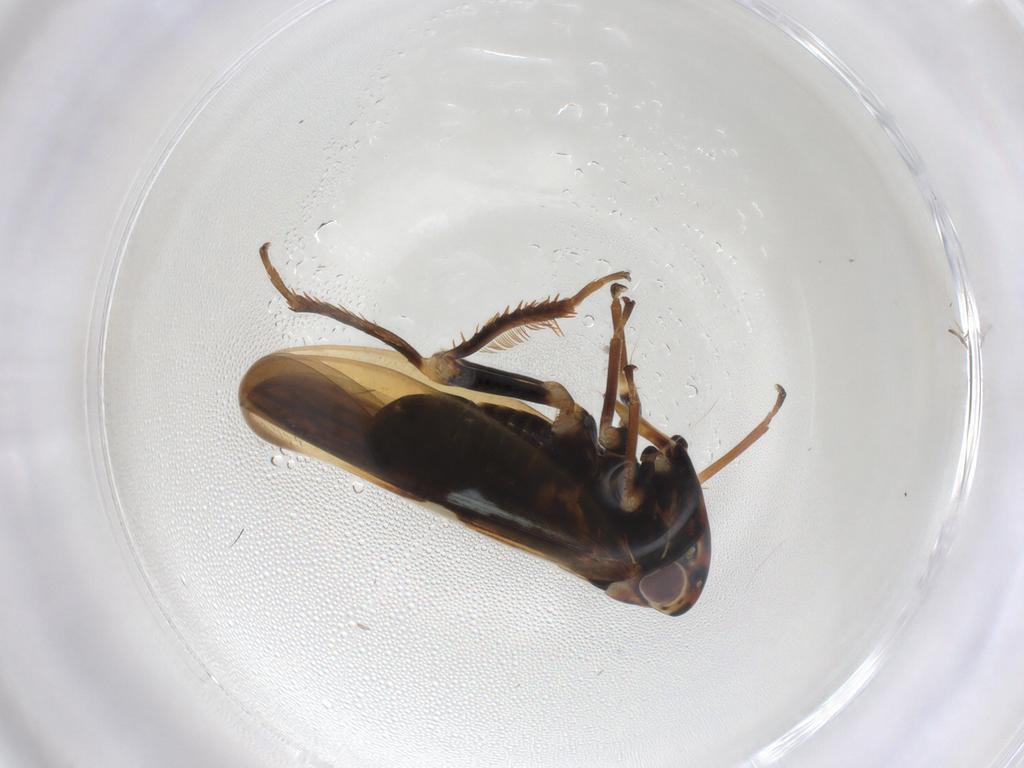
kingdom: Animalia
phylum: Arthropoda
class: Insecta
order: Hemiptera
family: Cicadellidae
